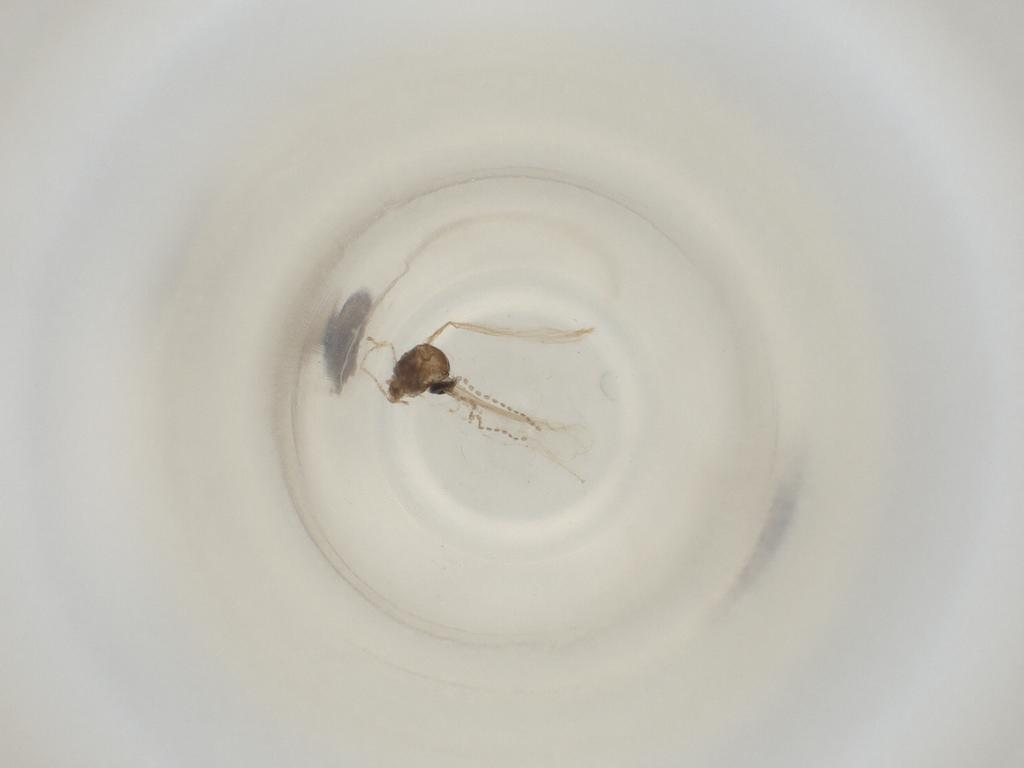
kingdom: Animalia
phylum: Arthropoda
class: Insecta
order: Diptera
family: Cecidomyiidae
